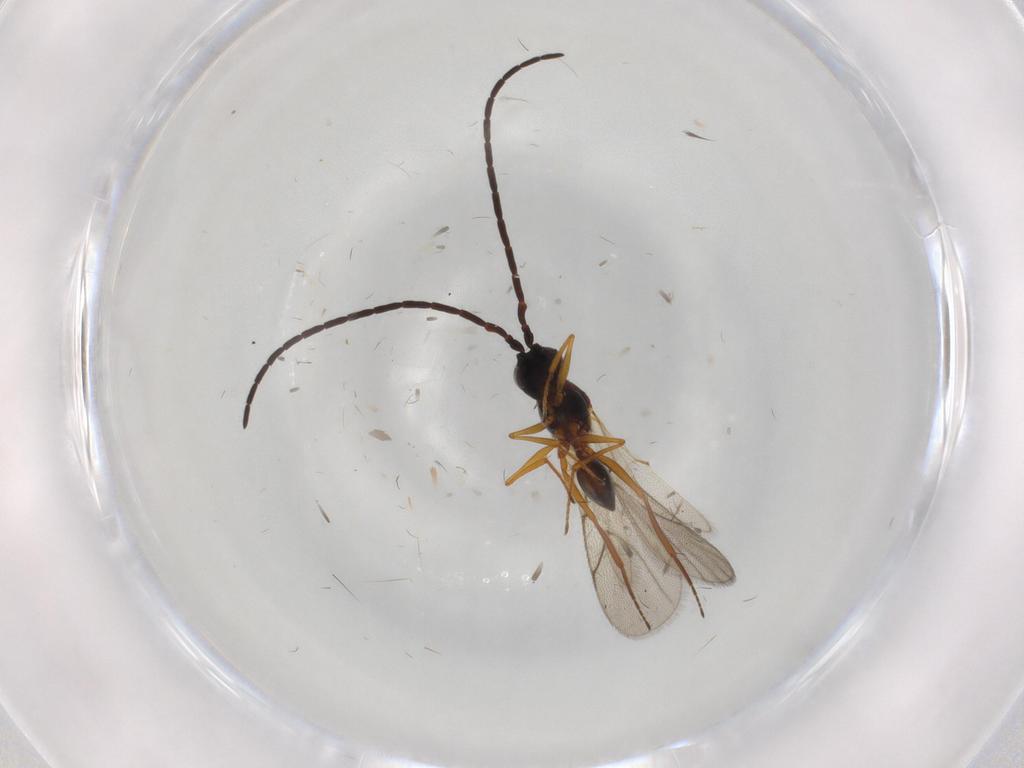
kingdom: Animalia
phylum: Arthropoda
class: Insecta
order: Hymenoptera
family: Figitidae
